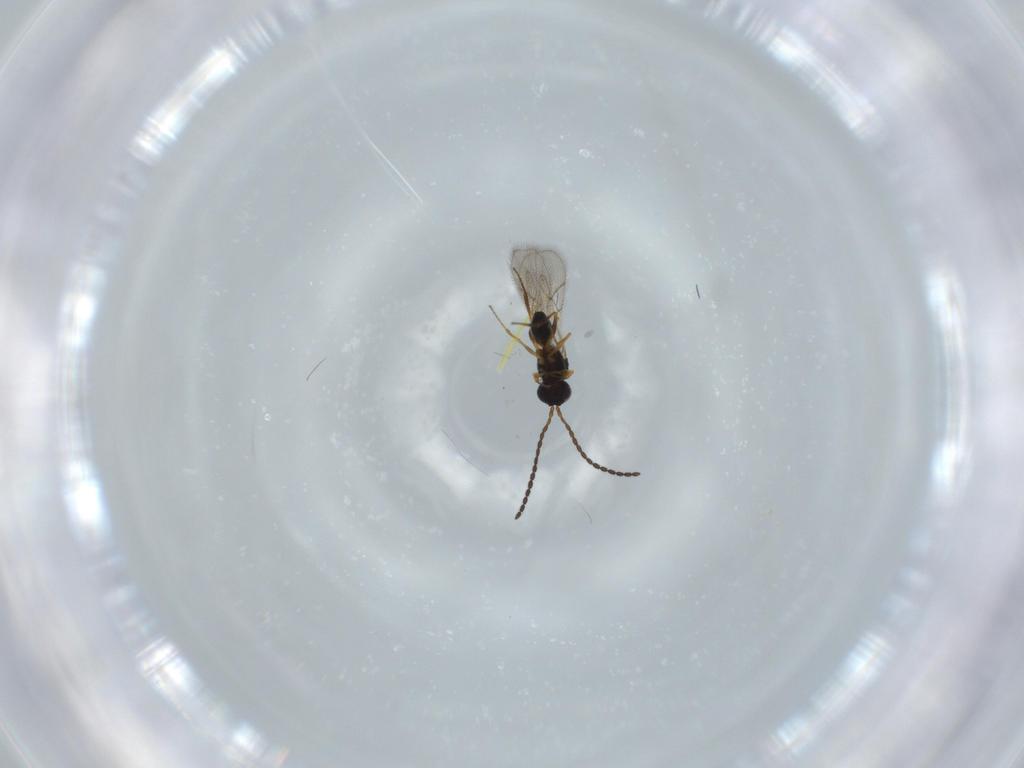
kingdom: Animalia
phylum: Arthropoda
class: Insecta
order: Hymenoptera
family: Figitidae
